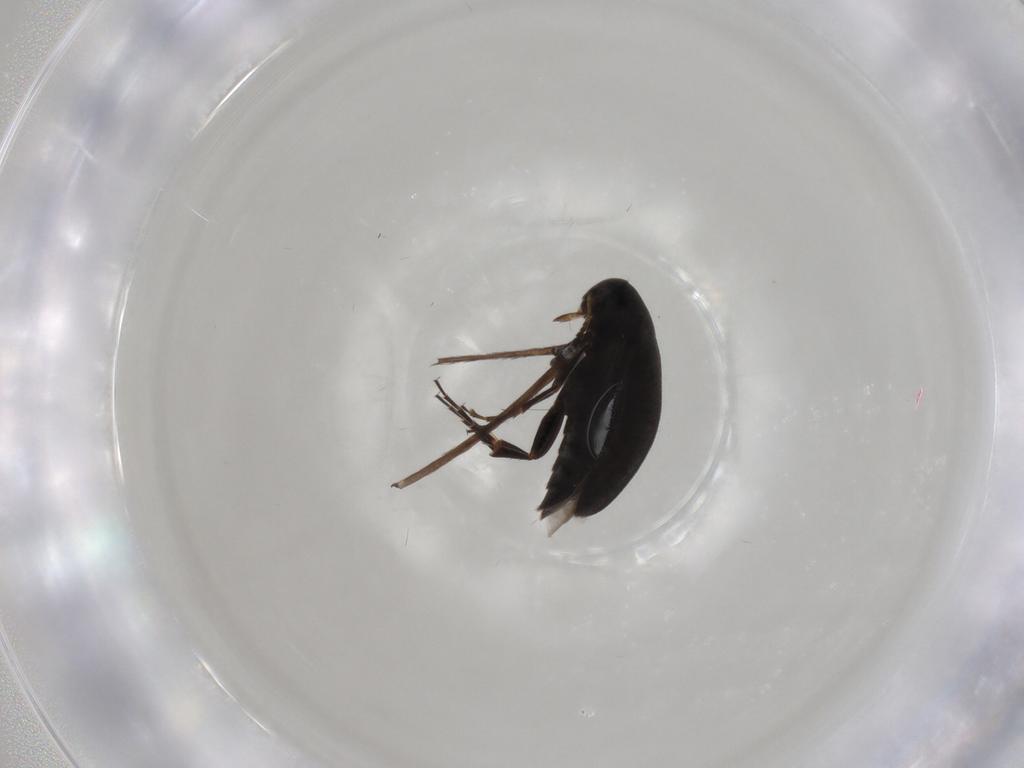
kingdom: Animalia
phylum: Arthropoda
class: Insecta
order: Coleoptera
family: Scraptiidae
